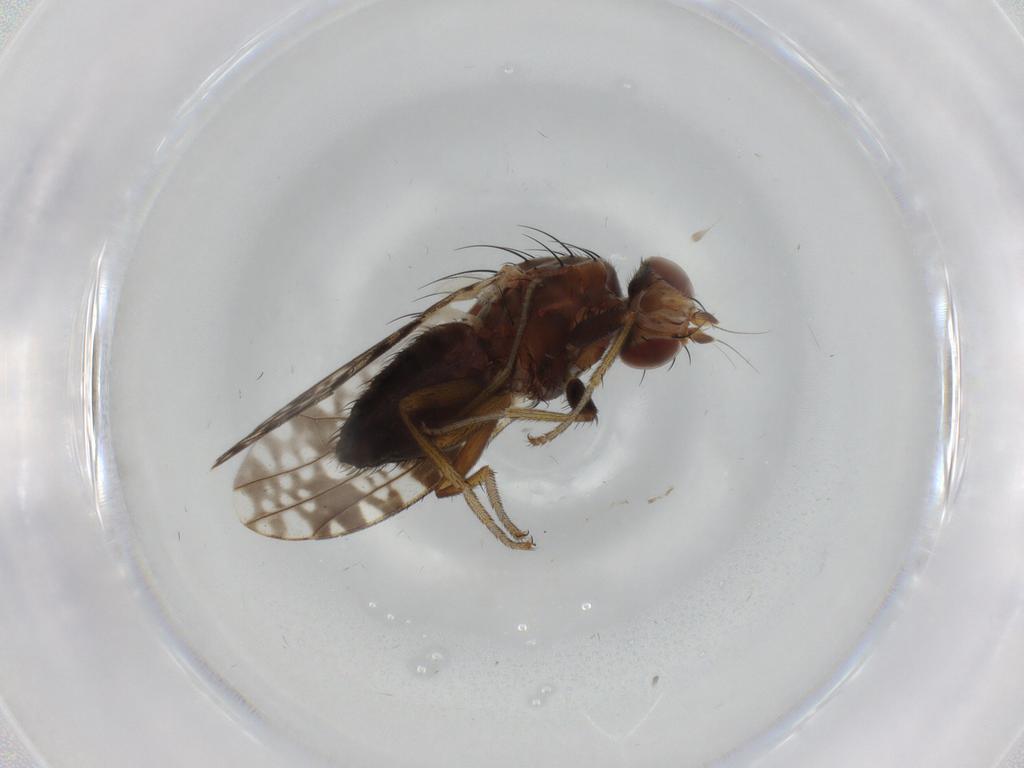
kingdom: Animalia
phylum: Arthropoda
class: Insecta
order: Diptera
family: Tephritidae
